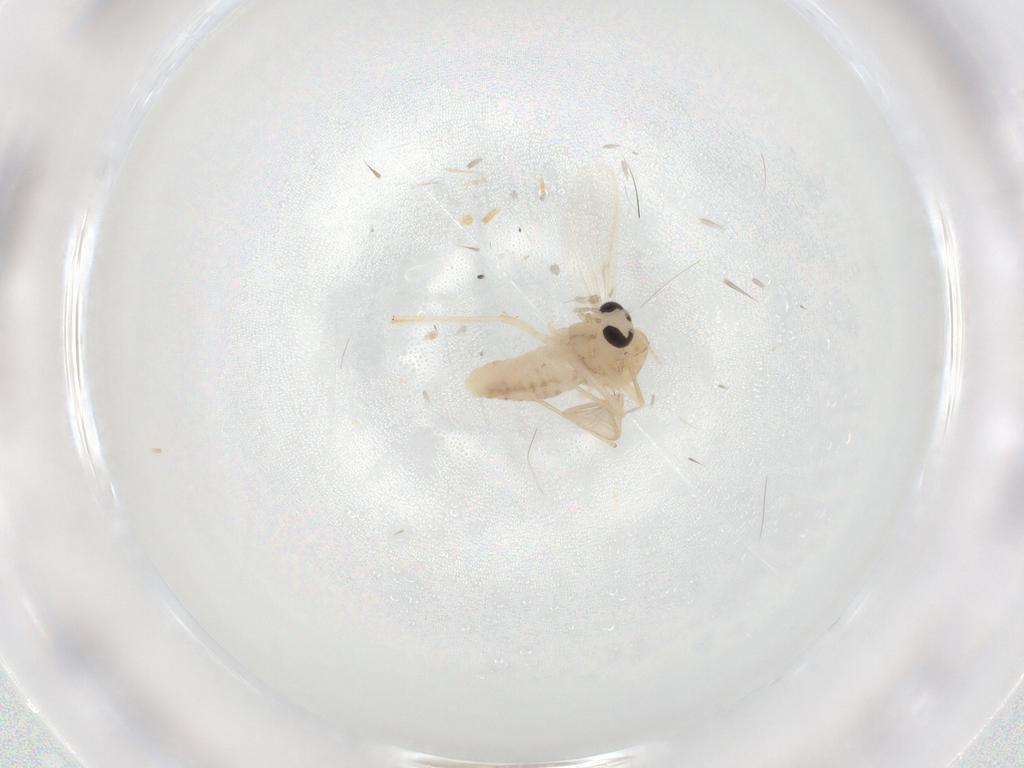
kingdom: Animalia
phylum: Arthropoda
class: Insecta
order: Diptera
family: Chironomidae
